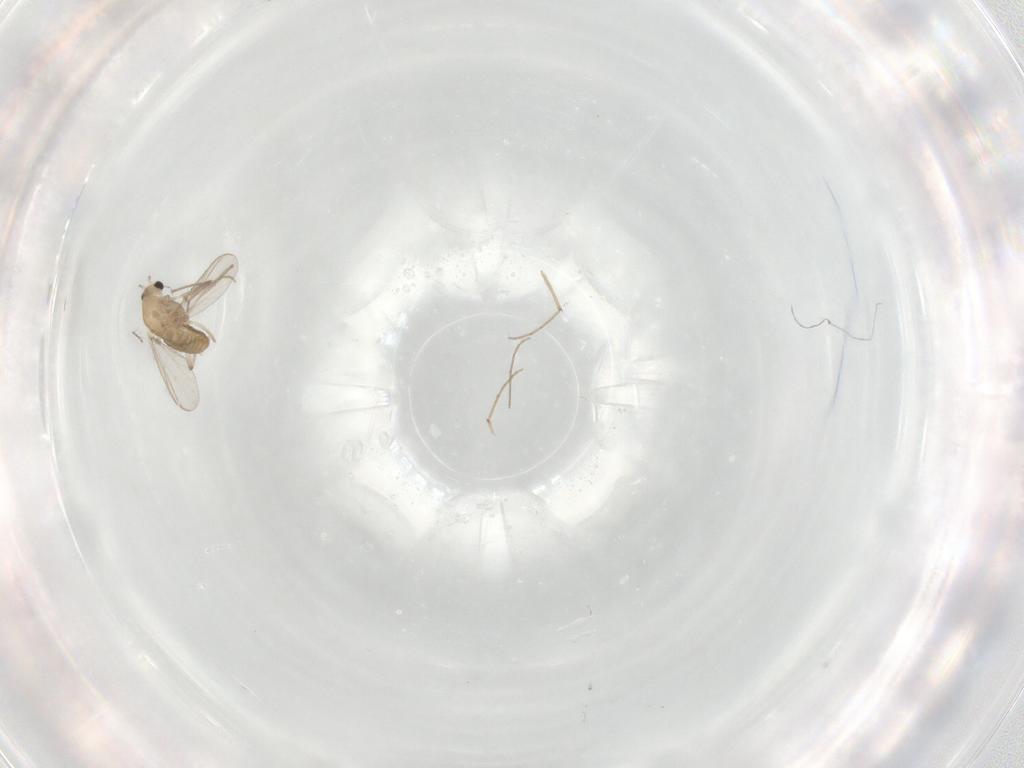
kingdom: Animalia
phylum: Arthropoda
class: Insecta
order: Diptera
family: Chironomidae
